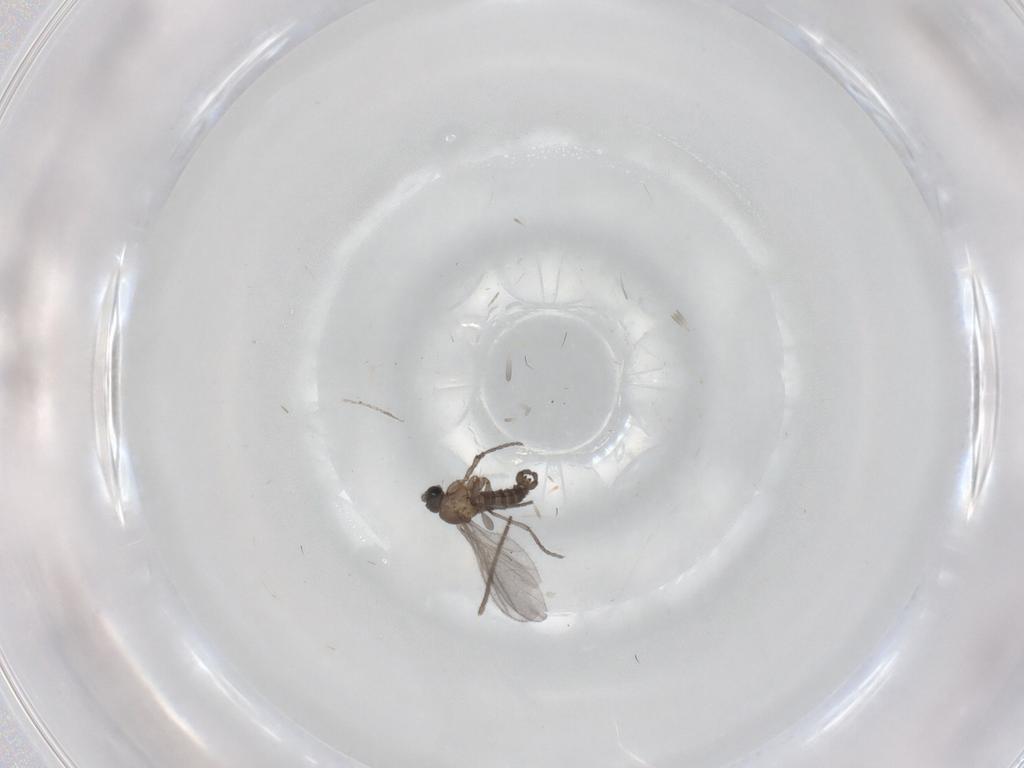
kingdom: Animalia
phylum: Arthropoda
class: Insecta
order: Diptera
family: Sciaridae
